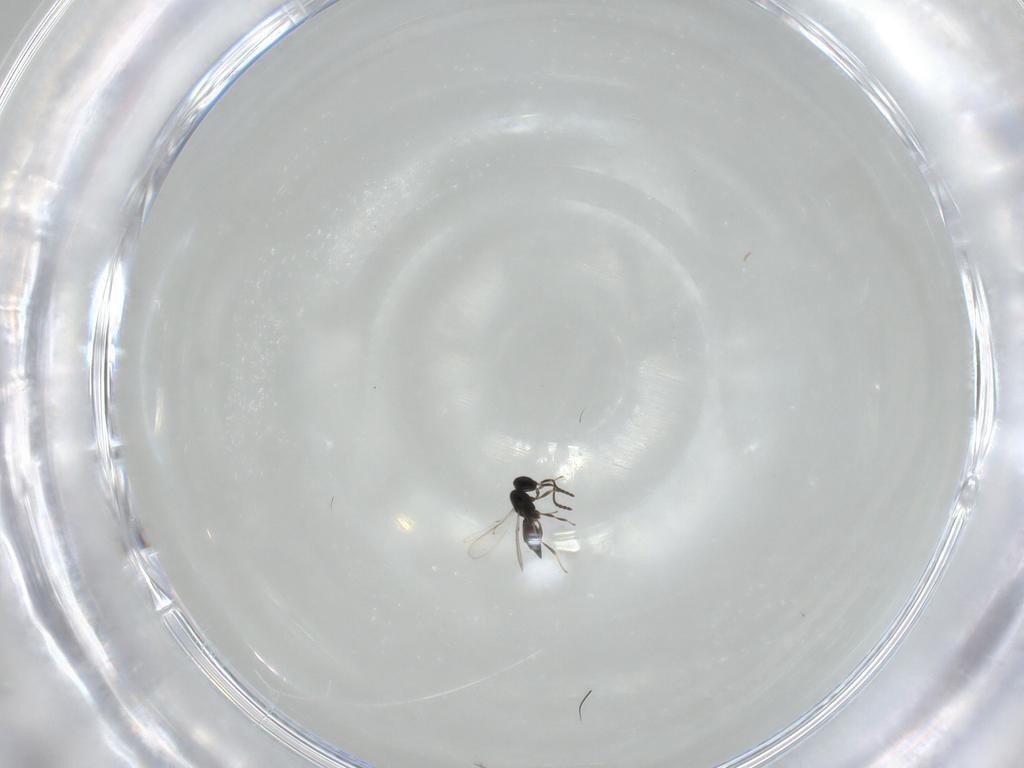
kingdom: Animalia
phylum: Arthropoda
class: Insecta
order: Hymenoptera
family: Scelionidae
